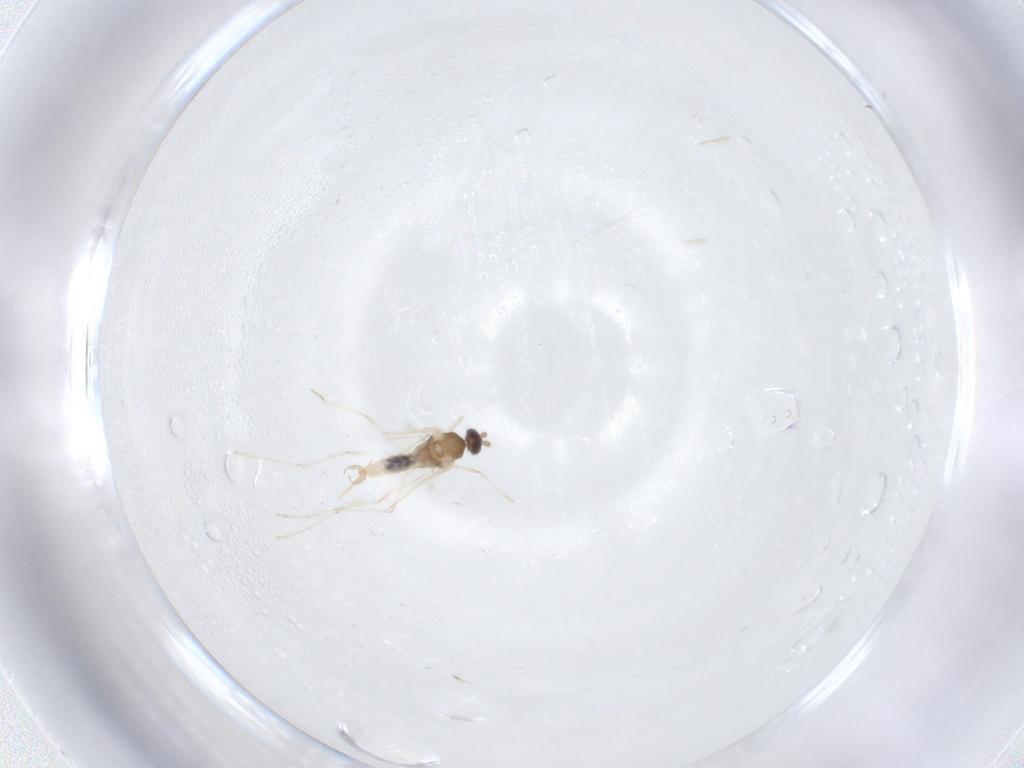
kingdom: Animalia
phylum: Arthropoda
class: Insecta
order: Diptera
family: Cecidomyiidae
